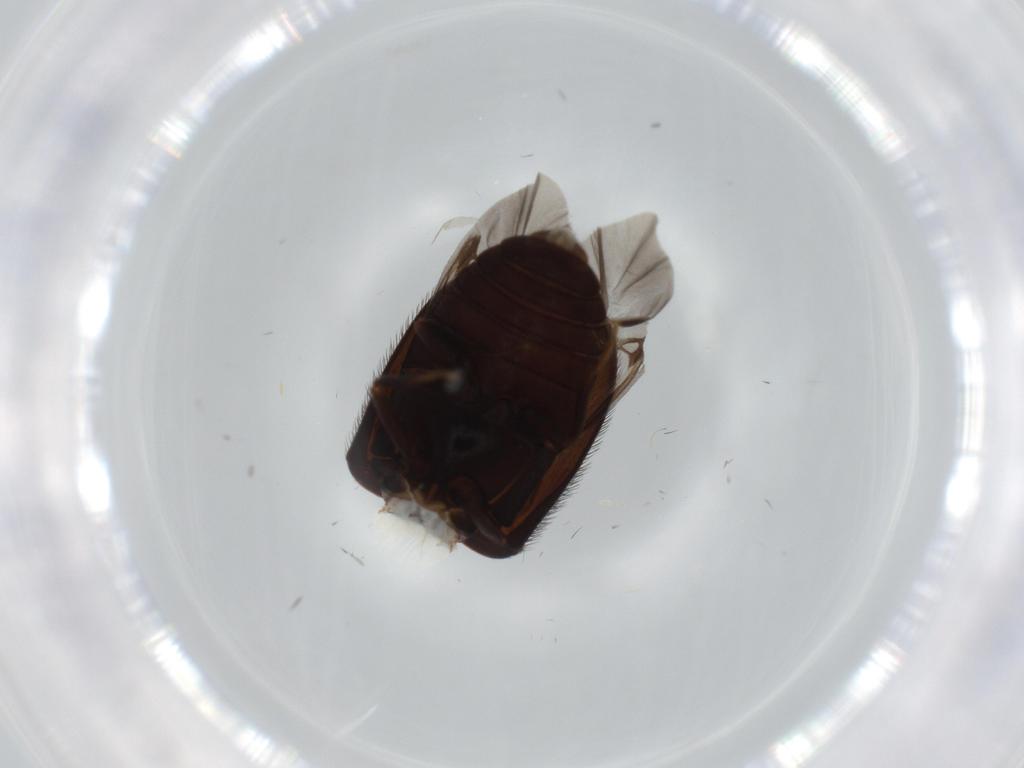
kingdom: Animalia
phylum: Arthropoda
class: Insecta
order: Coleoptera
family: Dermestidae
